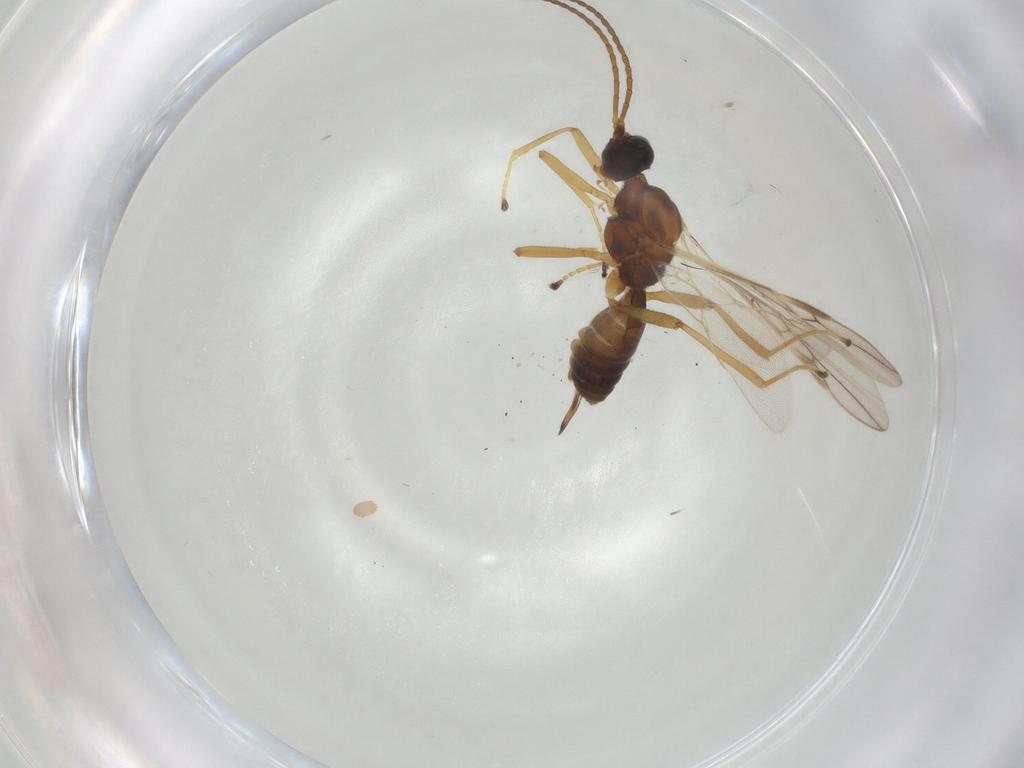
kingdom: Animalia
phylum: Arthropoda
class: Insecta
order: Hymenoptera
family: Braconidae
